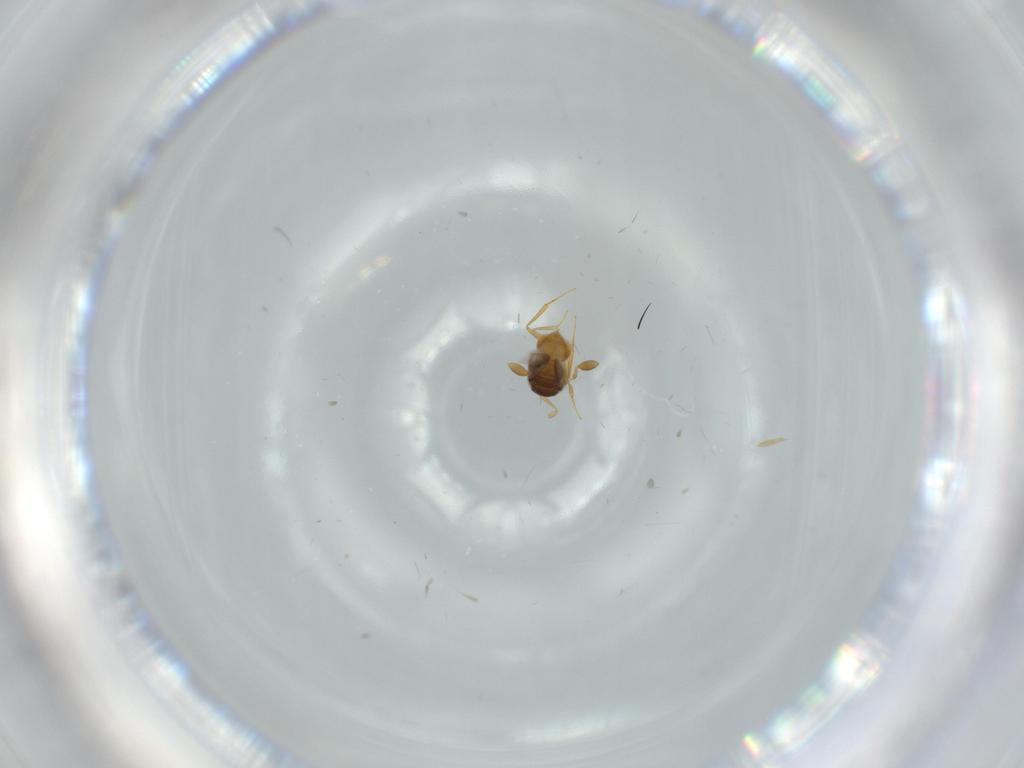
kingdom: Animalia
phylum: Arthropoda
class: Insecta
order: Hymenoptera
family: Scelionidae
